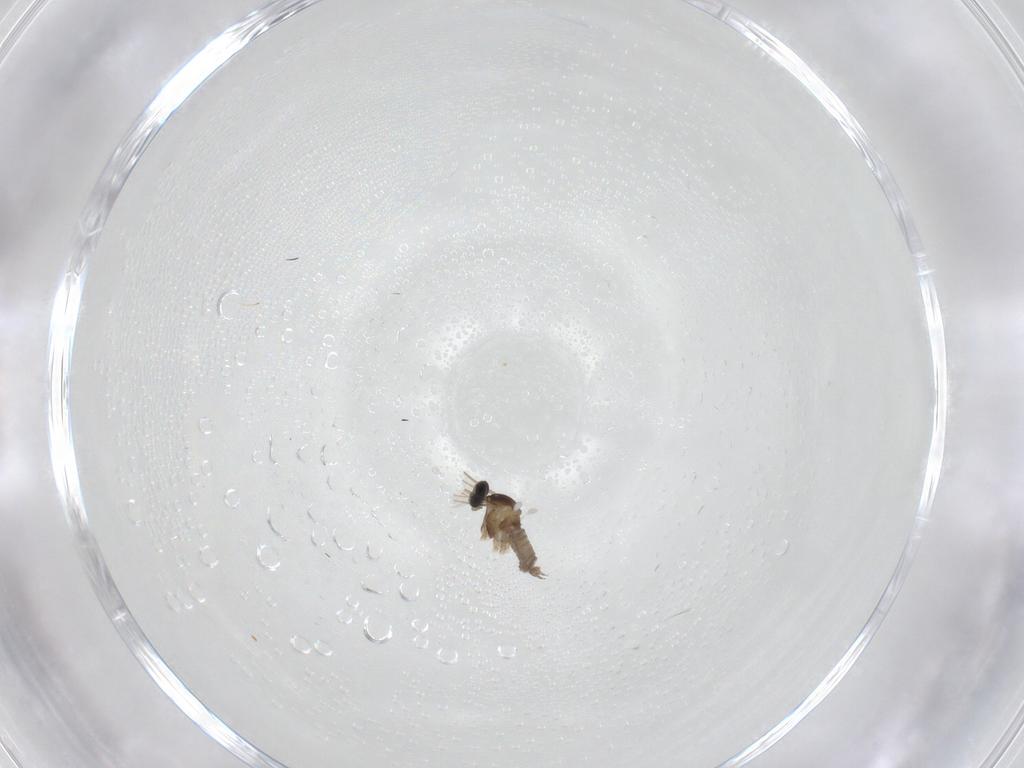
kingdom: Animalia
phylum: Arthropoda
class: Insecta
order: Diptera
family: Cecidomyiidae
